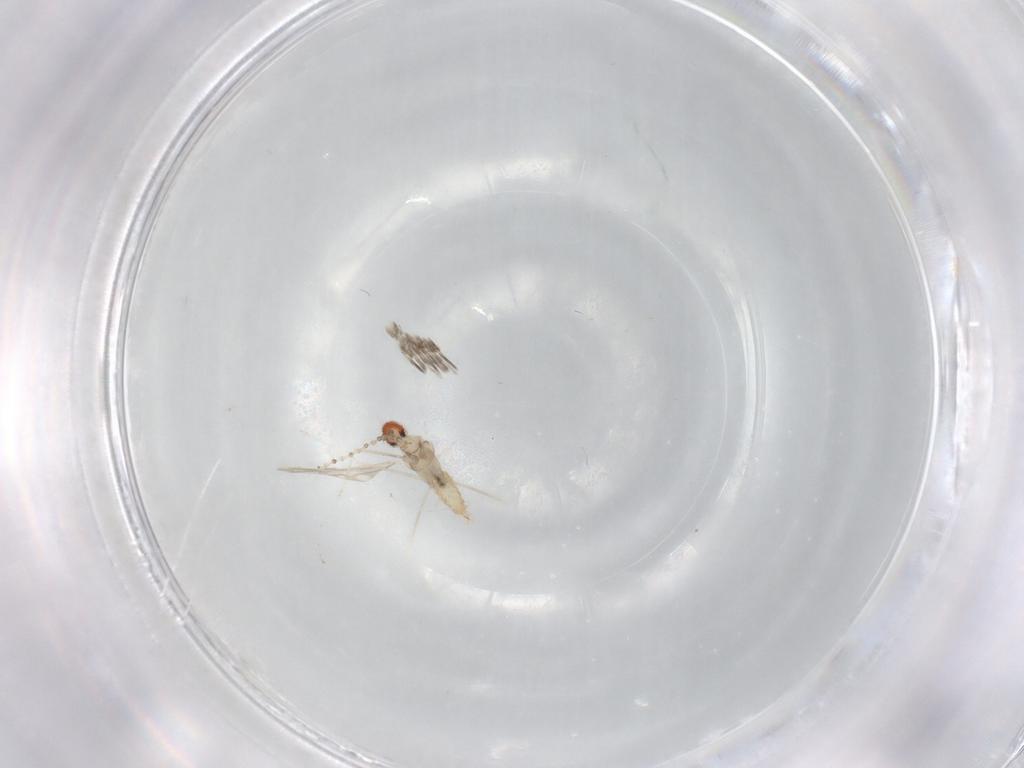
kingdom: Animalia
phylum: Arthropoda
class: Insecta
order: Diptera
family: Cecidomyiidae
